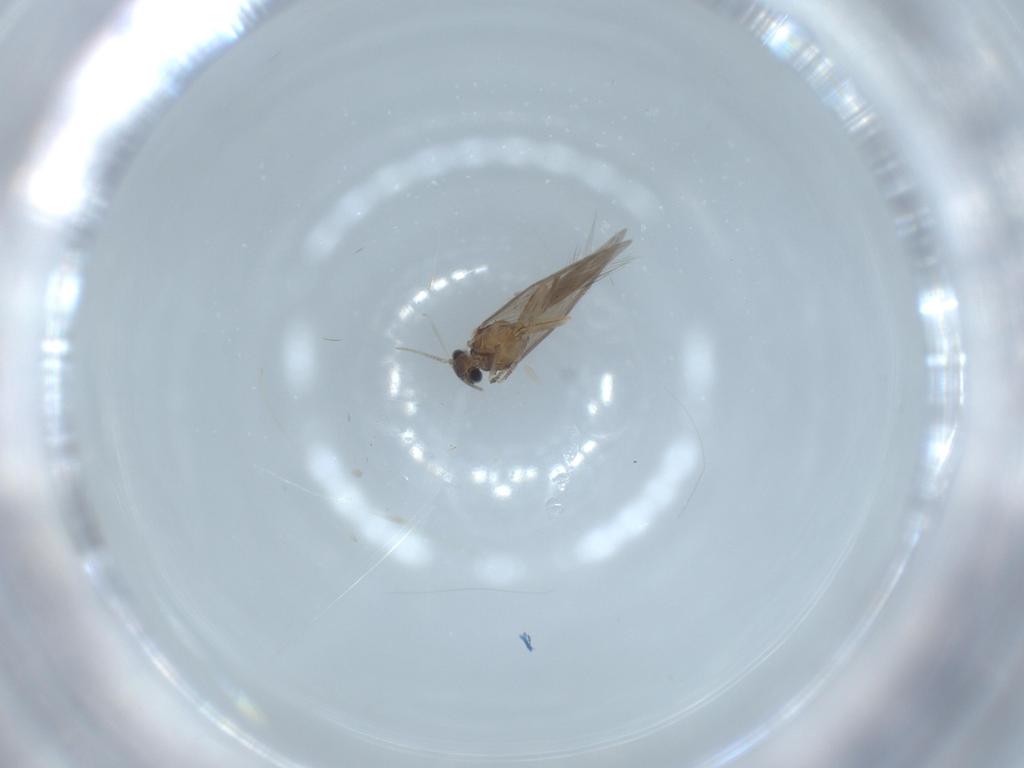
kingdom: Animalia
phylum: Arthropoda
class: Insecta
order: Trichoptera
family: Hydroptilidae
